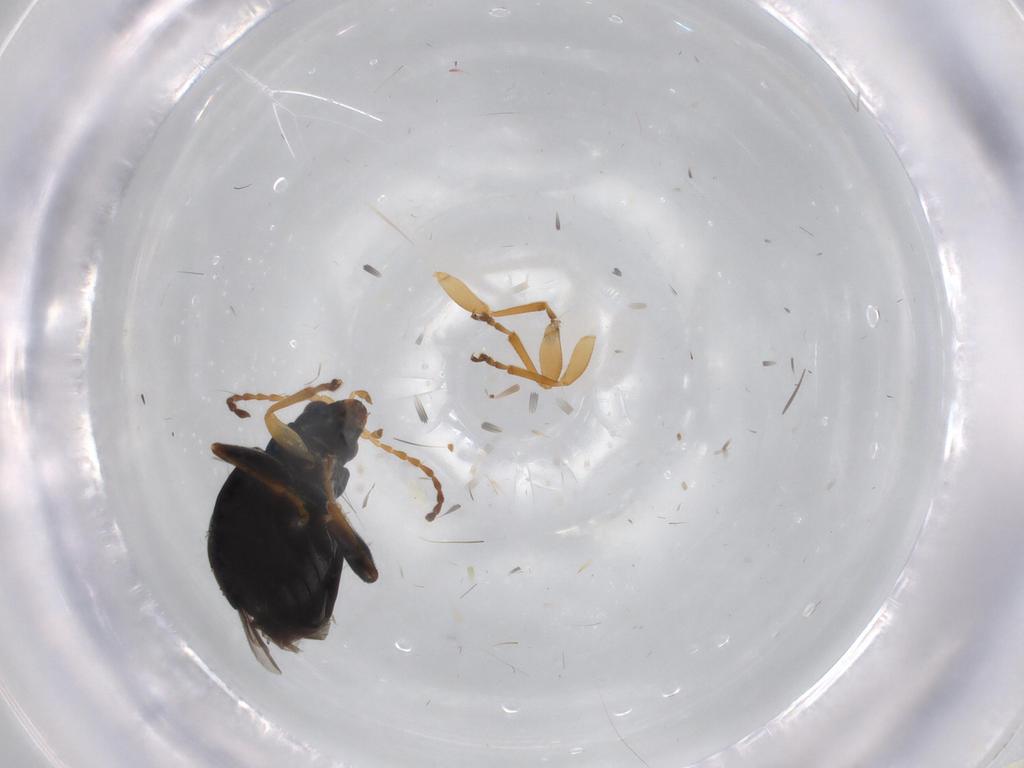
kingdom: Animalia
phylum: Arthropoda
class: Insecta
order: Coleoptera
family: Chrysomelidae
